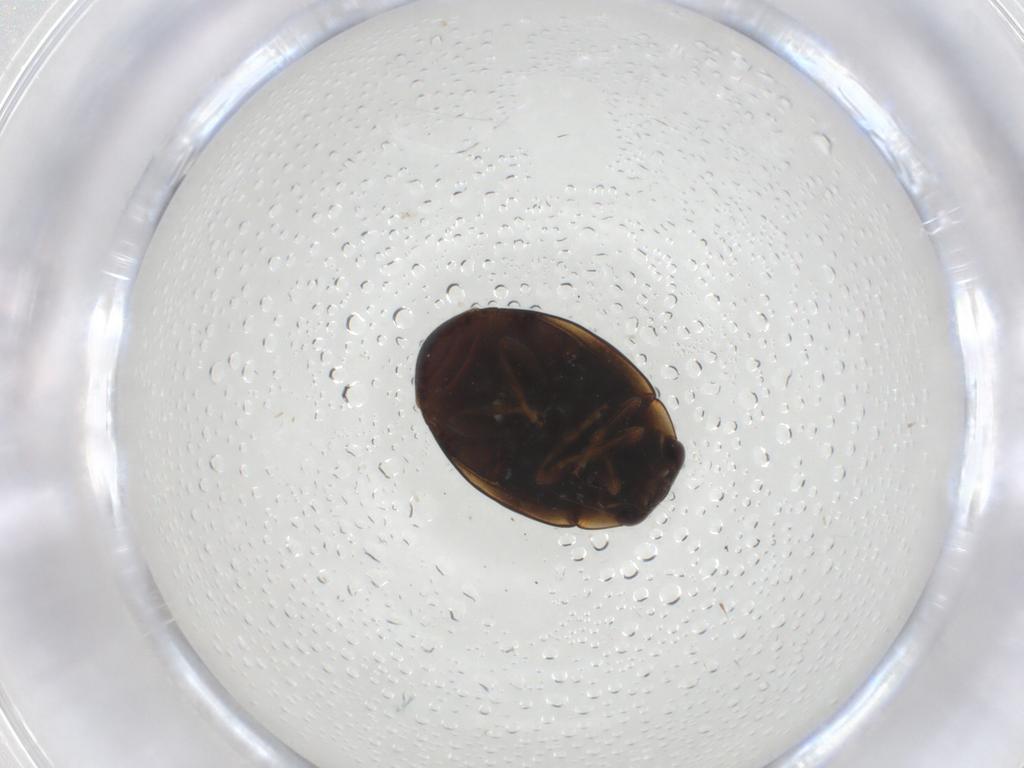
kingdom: Animalia
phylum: Arthropoda
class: Insecta
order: Coleoptera
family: Coccinellidae
